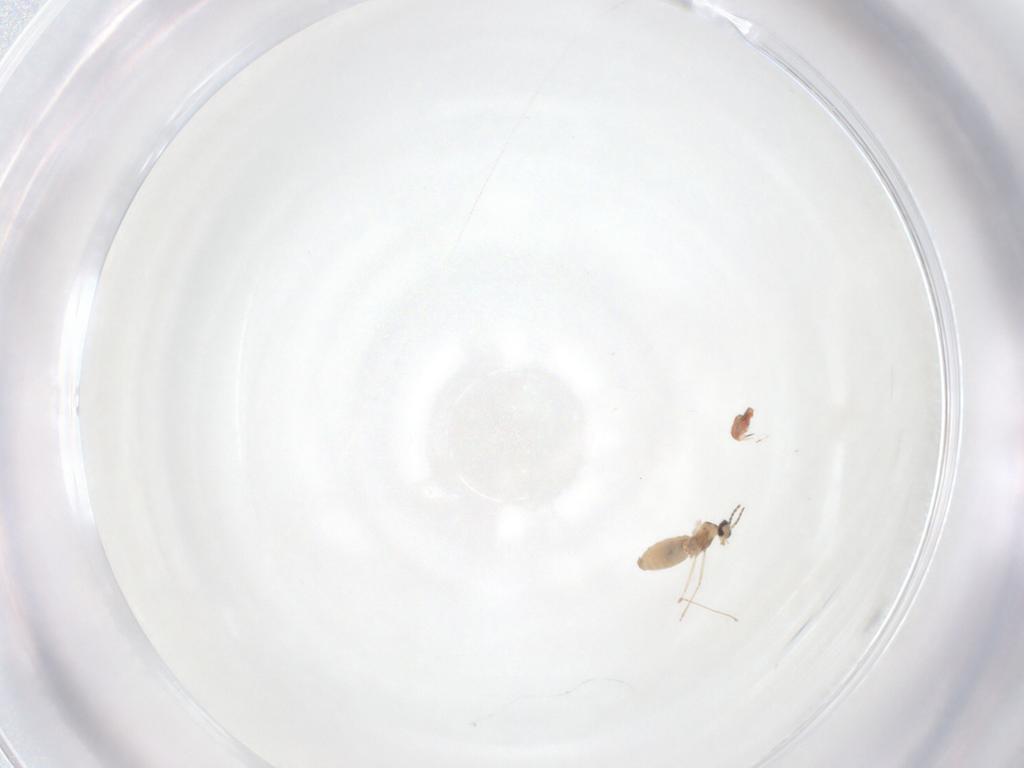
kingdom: Animalia
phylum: Arthropoda
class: Insecta
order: Diptera
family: Cecidomyiidae
